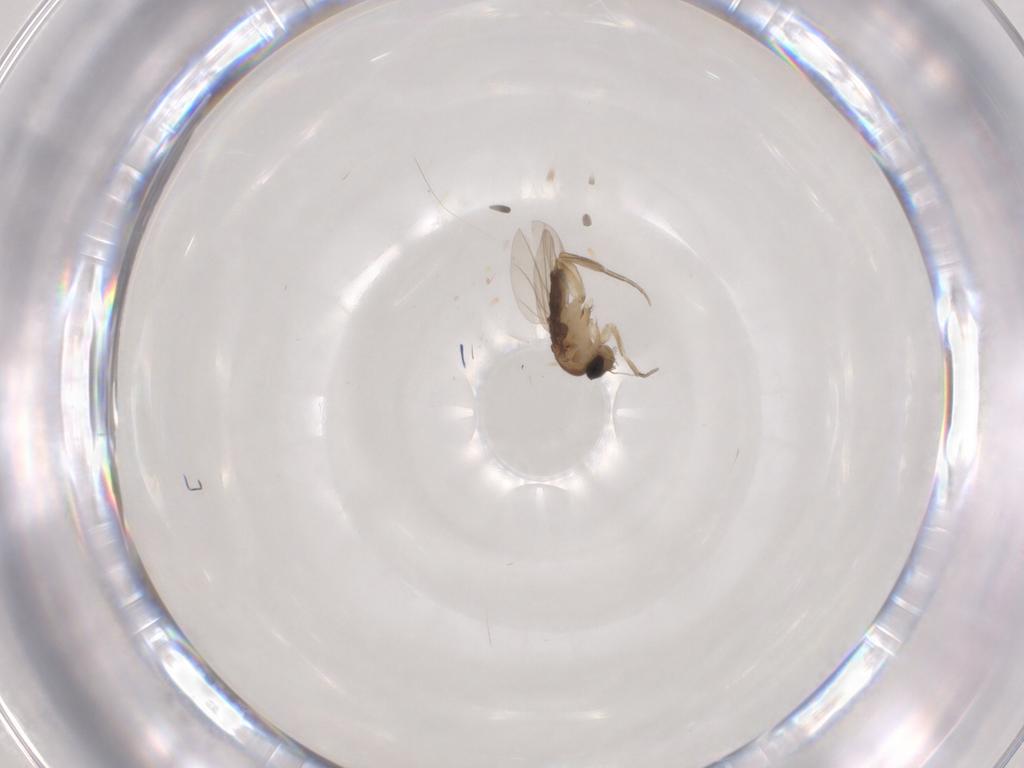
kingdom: Animalia
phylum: Arthropoda
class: Insecta
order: Diptera
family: Phoridae
